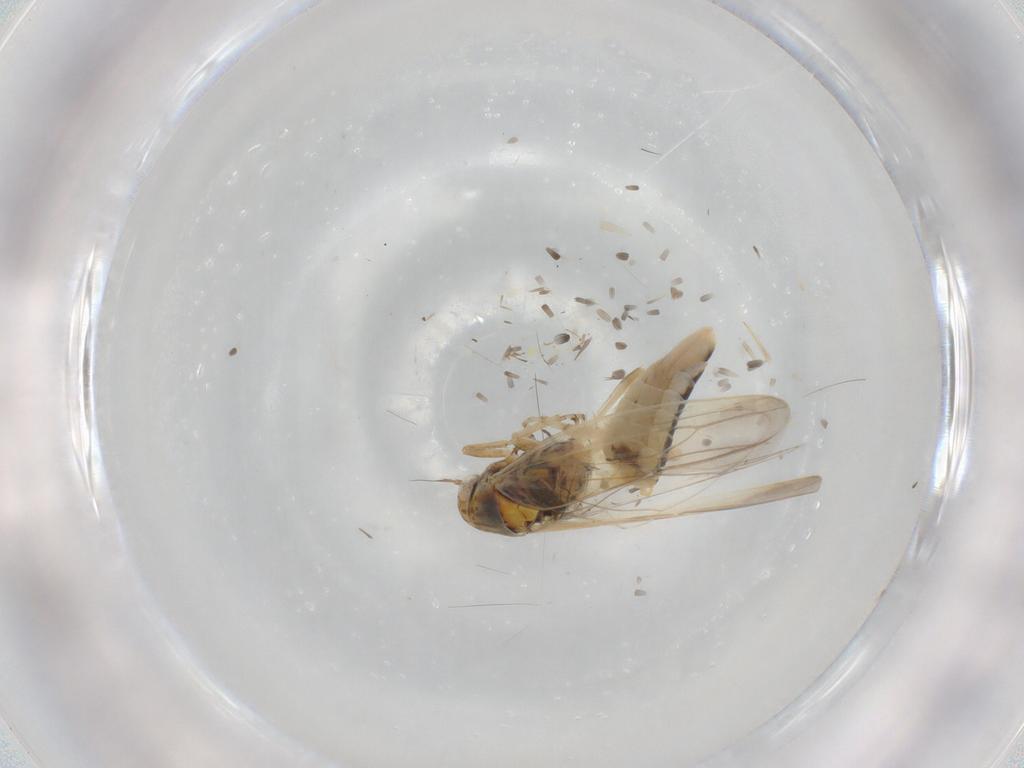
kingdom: Animalia
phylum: Arthropoda
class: Insecta
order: Hemiptera
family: Cicadellidae
